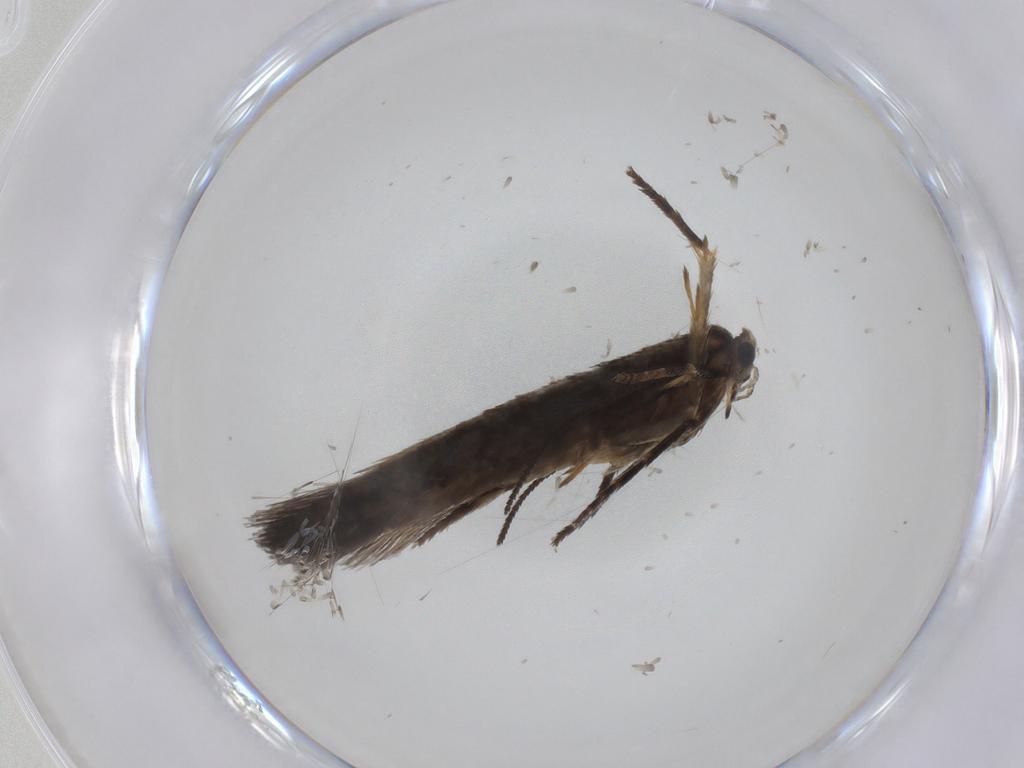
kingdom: Animalia
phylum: Arthropoda
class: Insecta
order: Lepidoptera
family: Nepticulidae
